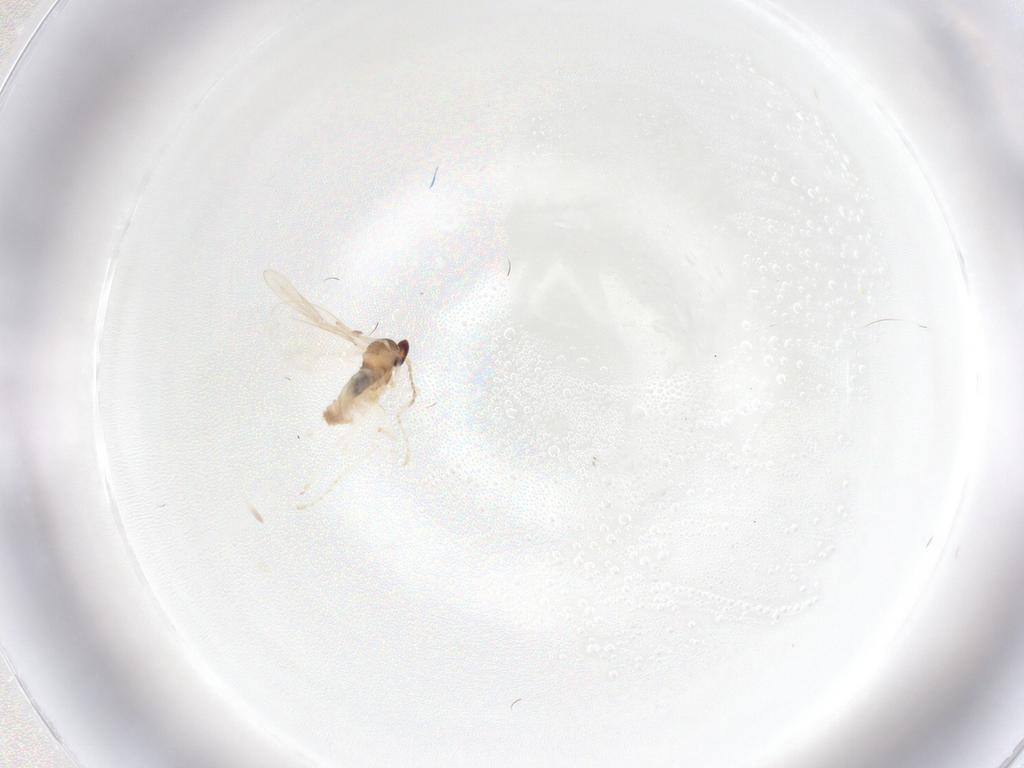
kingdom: Animalia
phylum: Arthropoda
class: Insecta
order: Diptera
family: Cecidomyiidae
